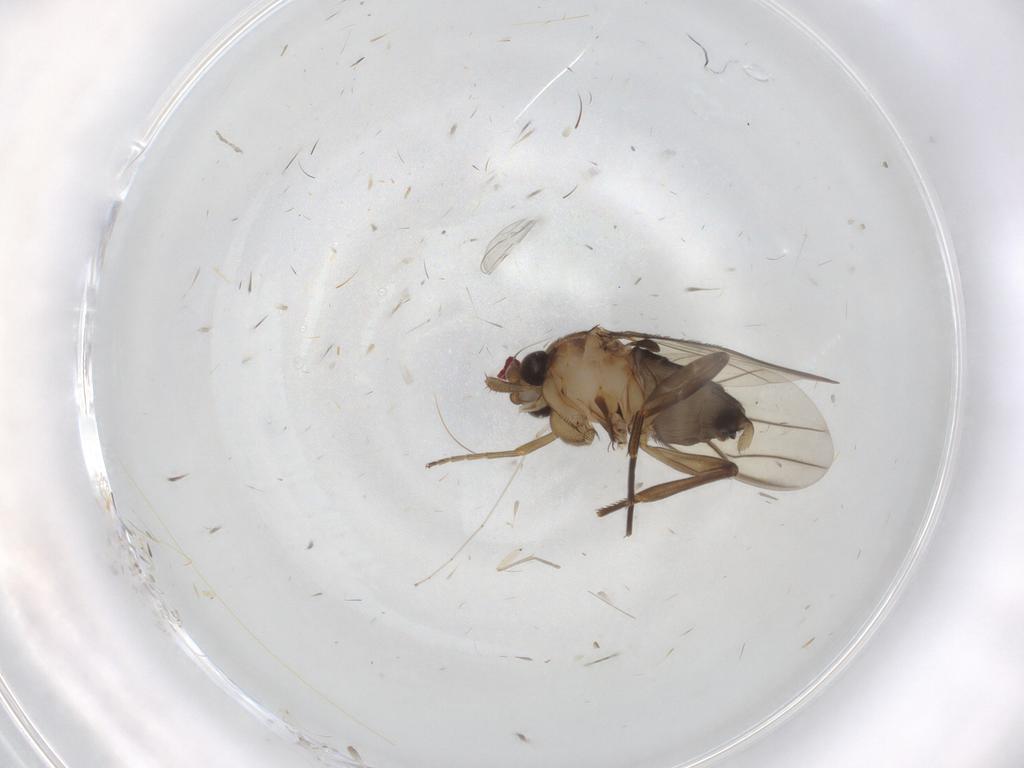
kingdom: Animalia
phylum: Arthropoda
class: Insecta
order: Diptera
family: Phoridae
